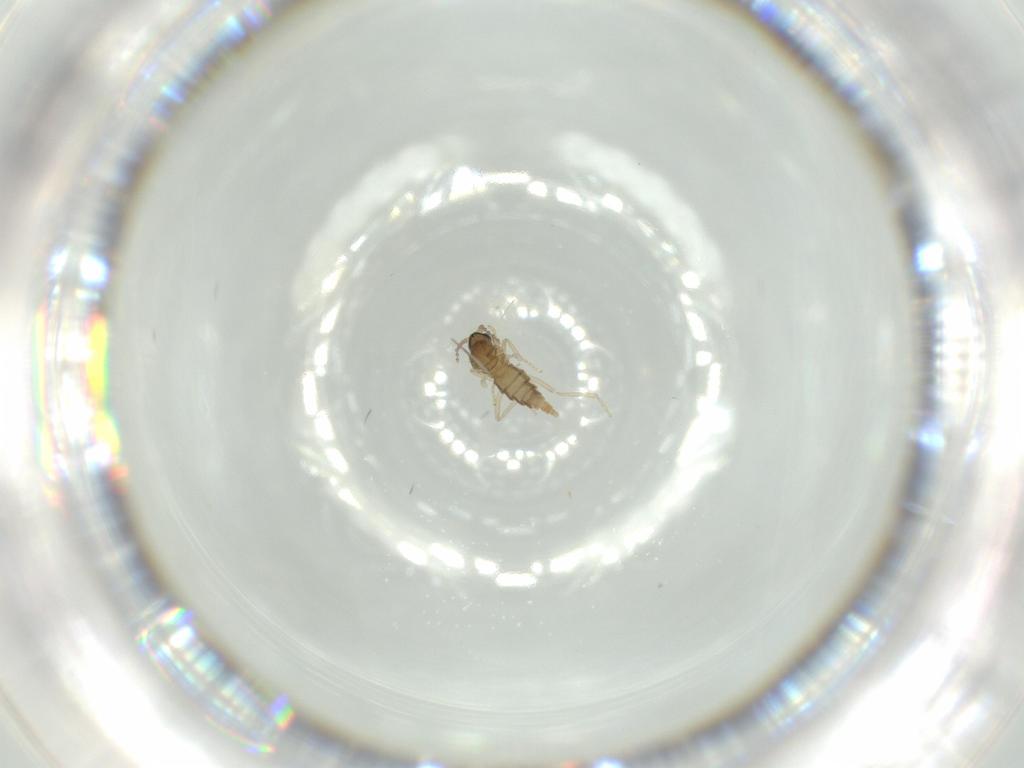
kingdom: Animalia
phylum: Arthropoda
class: Insecta
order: Diptera
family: Cecidomyiidae
